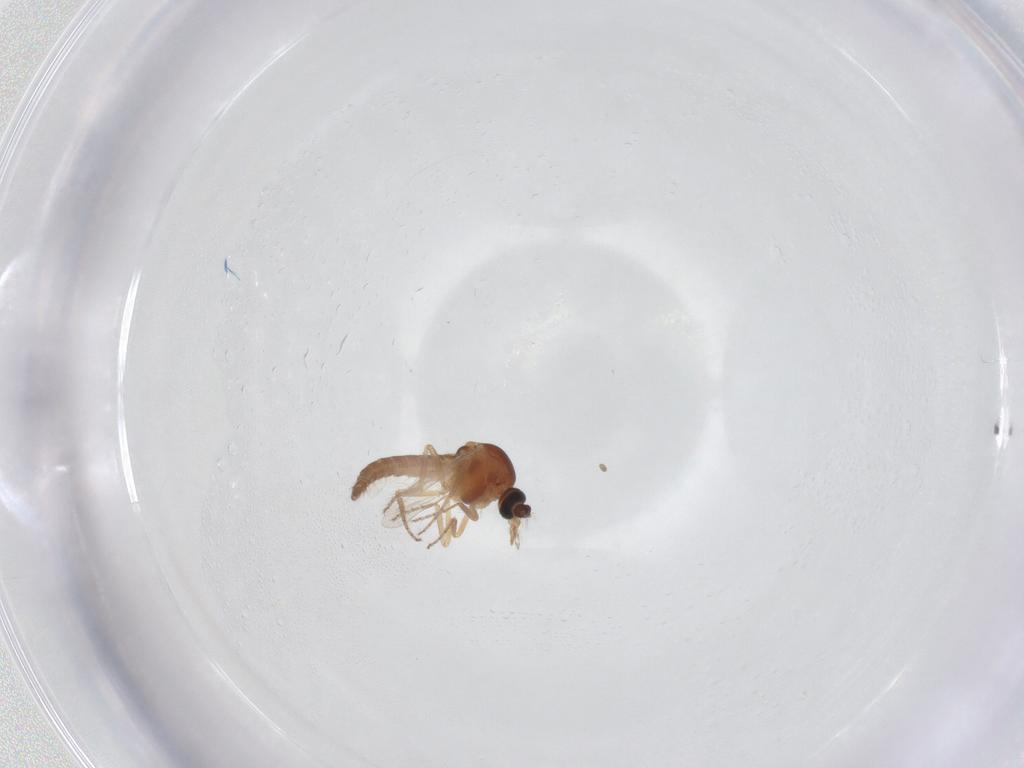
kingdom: Animalia
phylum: Arthropoda
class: Insecta
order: Diptera
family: Ceratopogonidae
